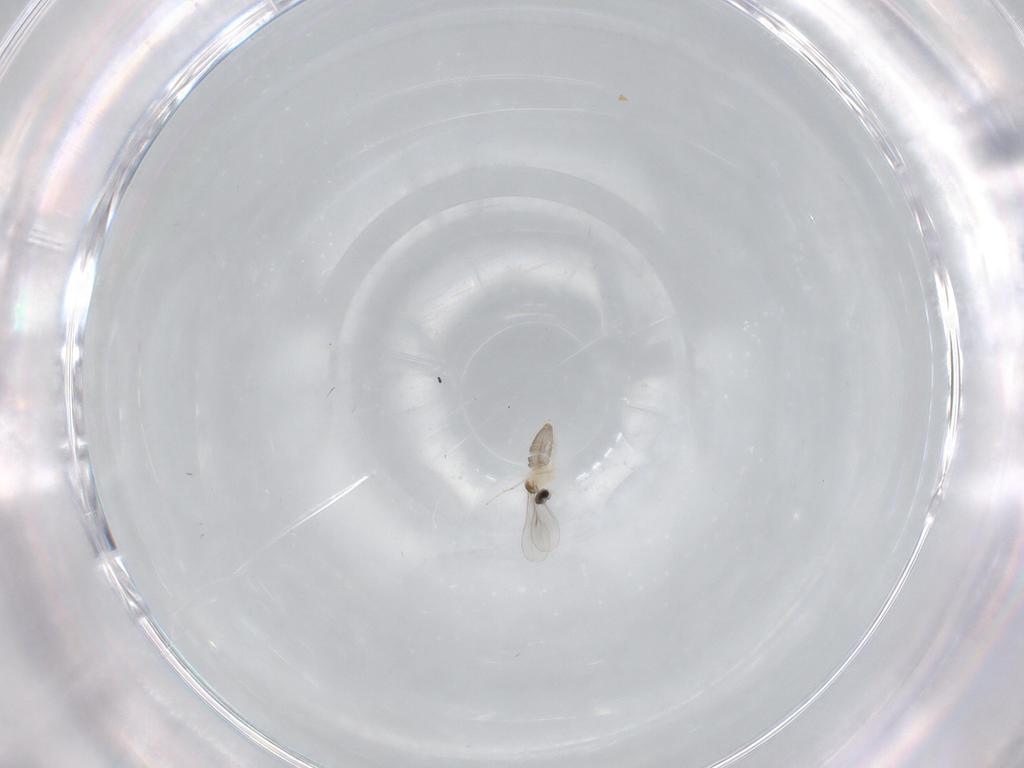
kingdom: Animalia
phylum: Arthropoda
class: Insecta
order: Diptera
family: Cecidomyiidae
